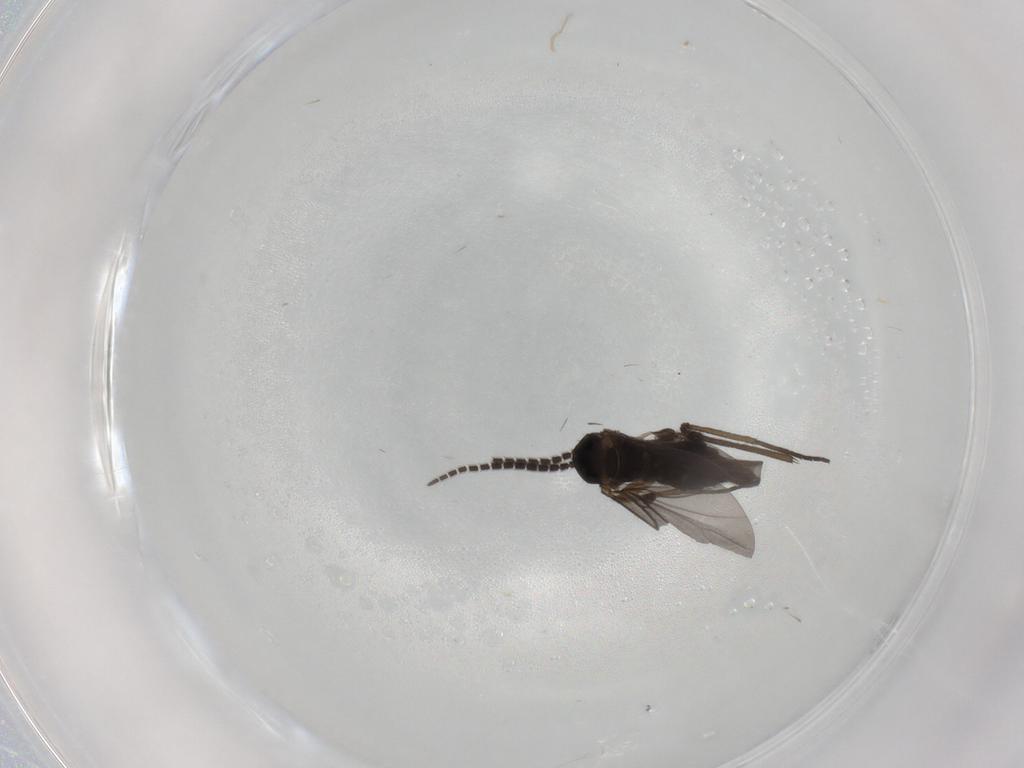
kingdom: Animalia
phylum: Arthropoda
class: Insecta
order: Diptera
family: Sciaridae
